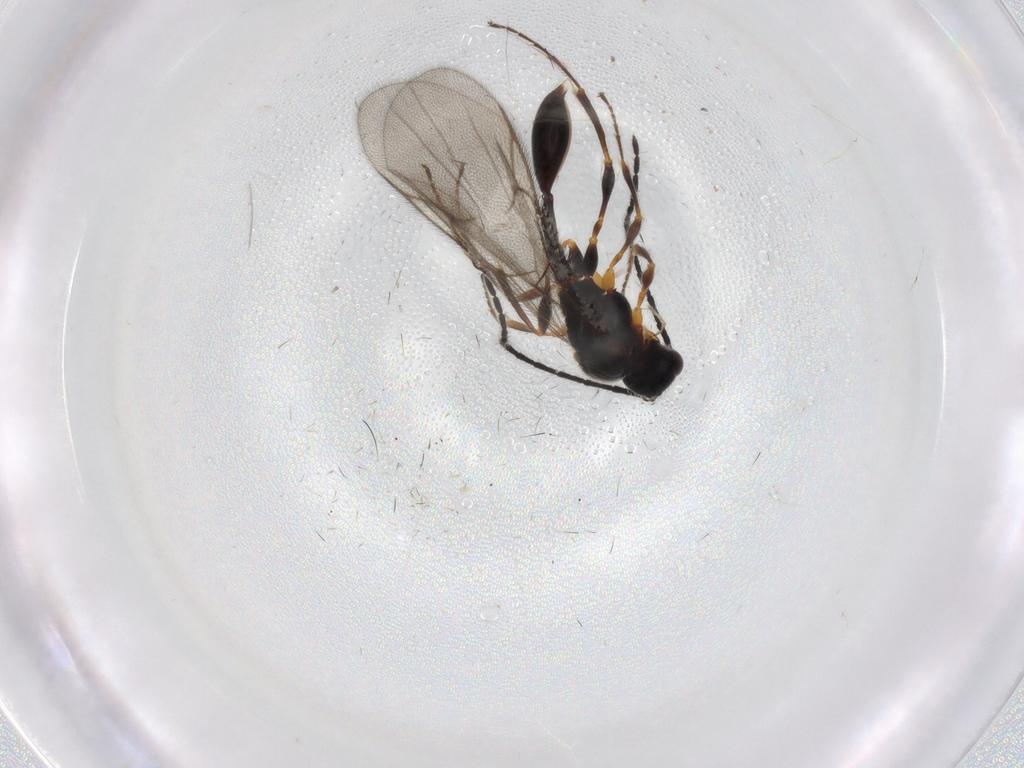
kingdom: Animalia
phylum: Arthropoda
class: Insecta
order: Hymenoptera
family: Diapriidae
